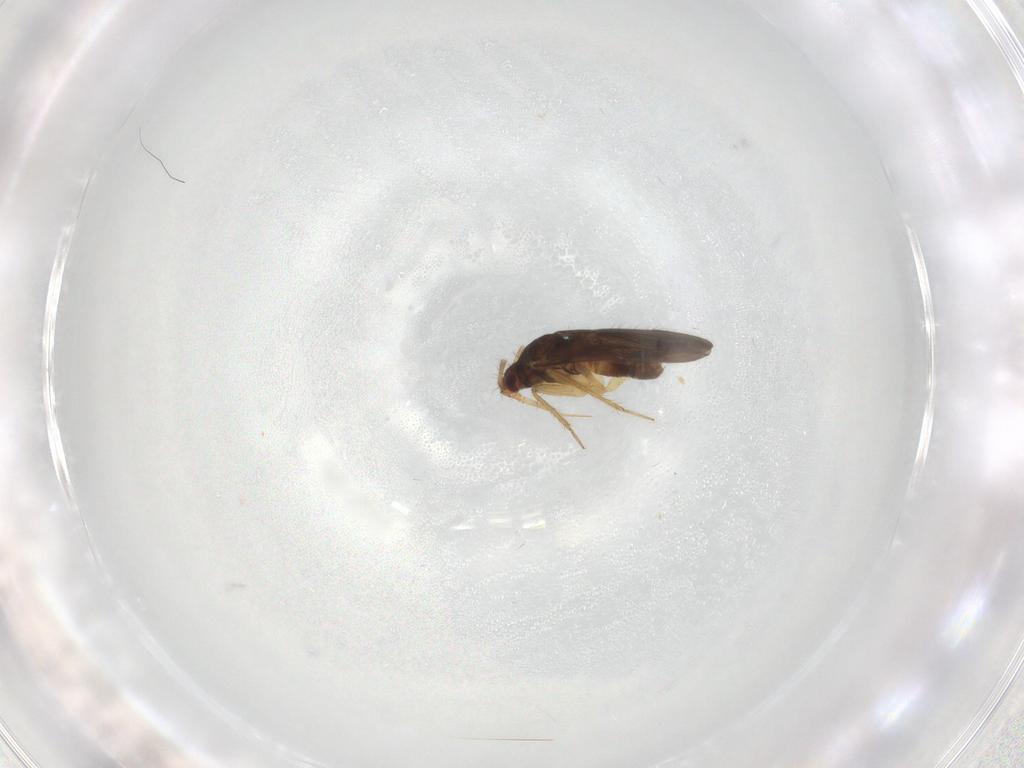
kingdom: Animalia
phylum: Arthropoda
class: Insecta
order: Hemiptera
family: Ceratocombidae
